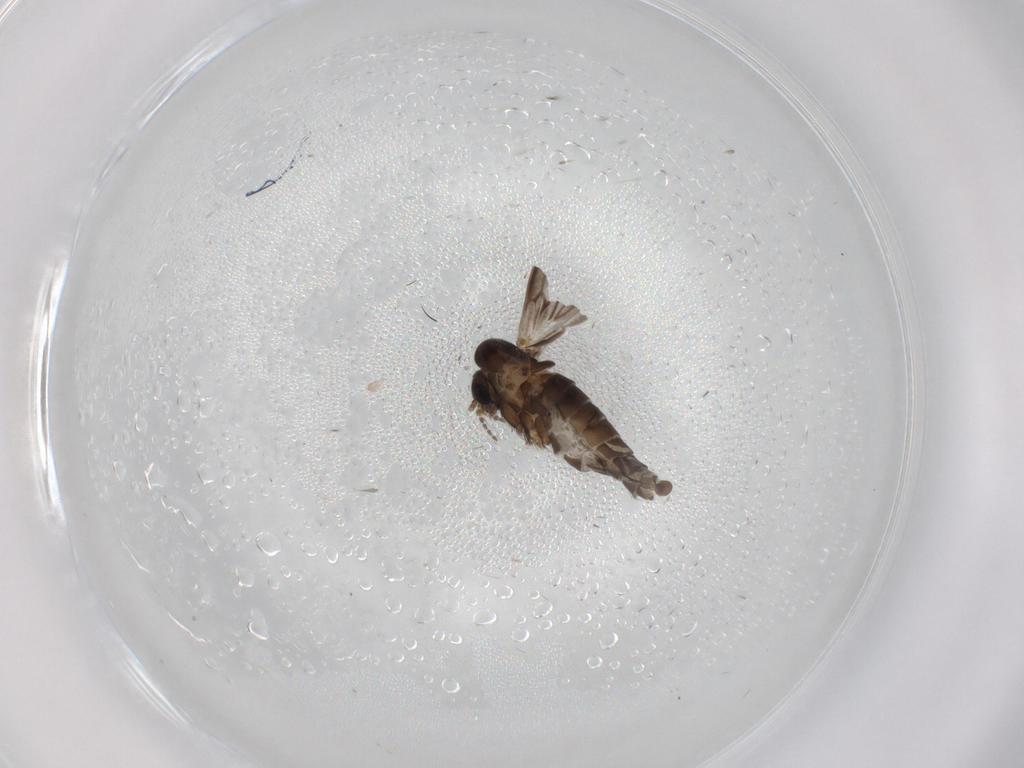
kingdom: Animalia
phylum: Arthropoda
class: Insecta
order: Diptera
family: Cecidomyiidae
